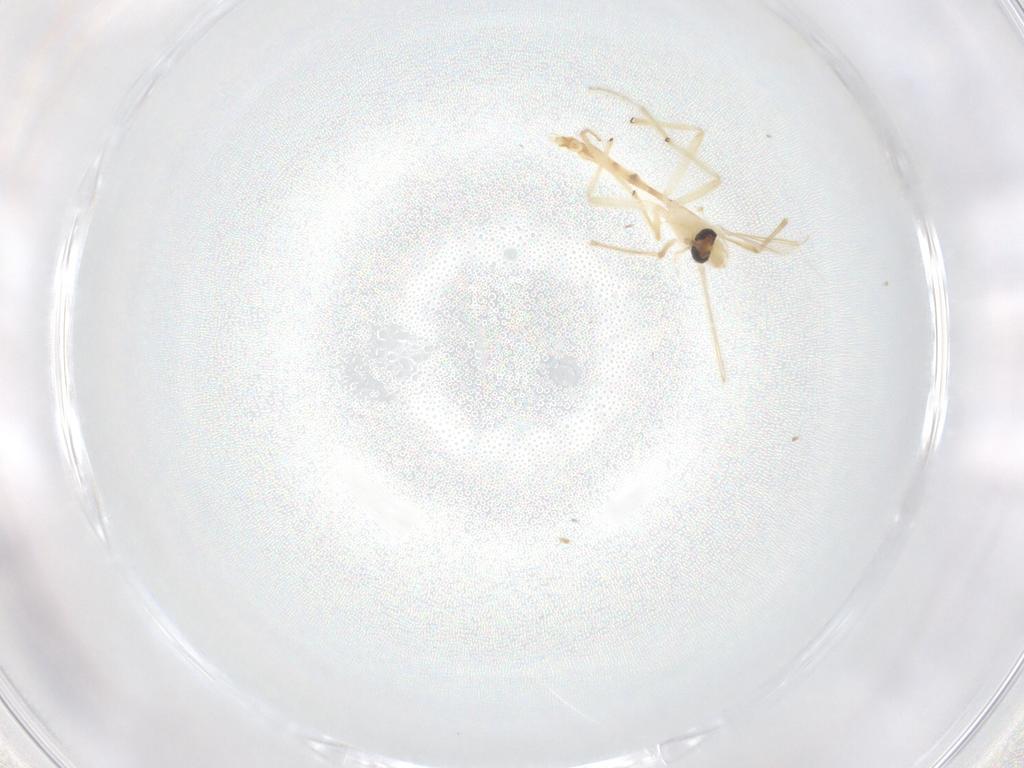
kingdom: Animalia
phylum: Arthropoda
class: Insecta
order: Diptera
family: Chironomidae
